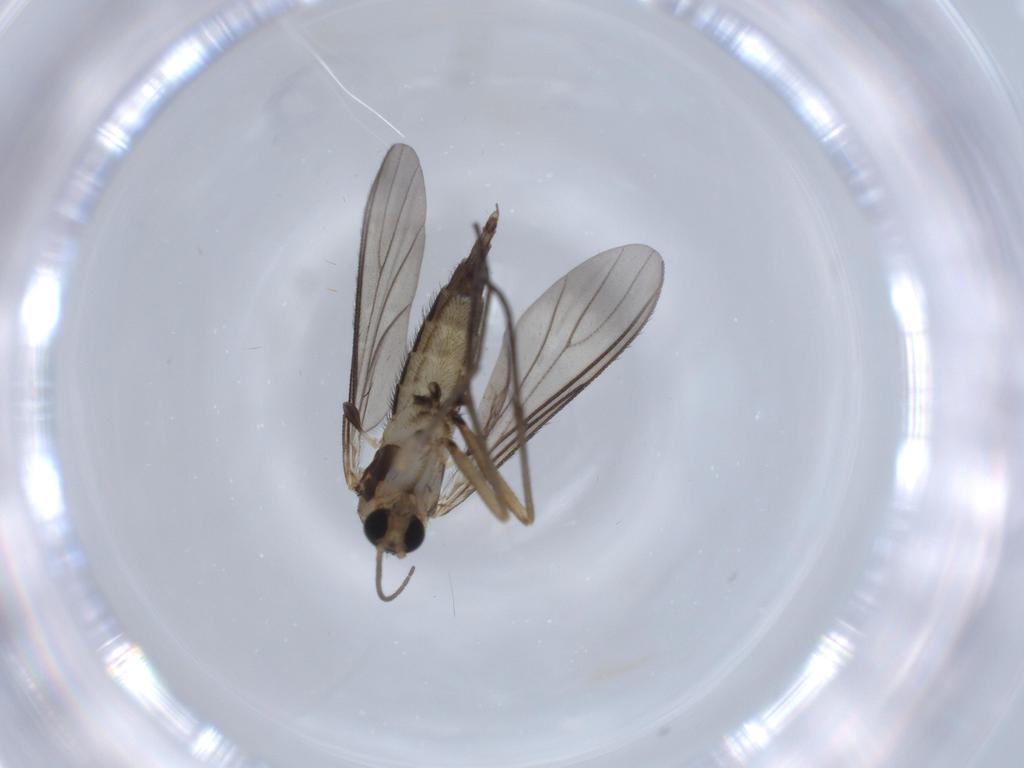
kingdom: Animalia
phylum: Arthropoda
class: Insecta
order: Diptera
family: Sciaridae
